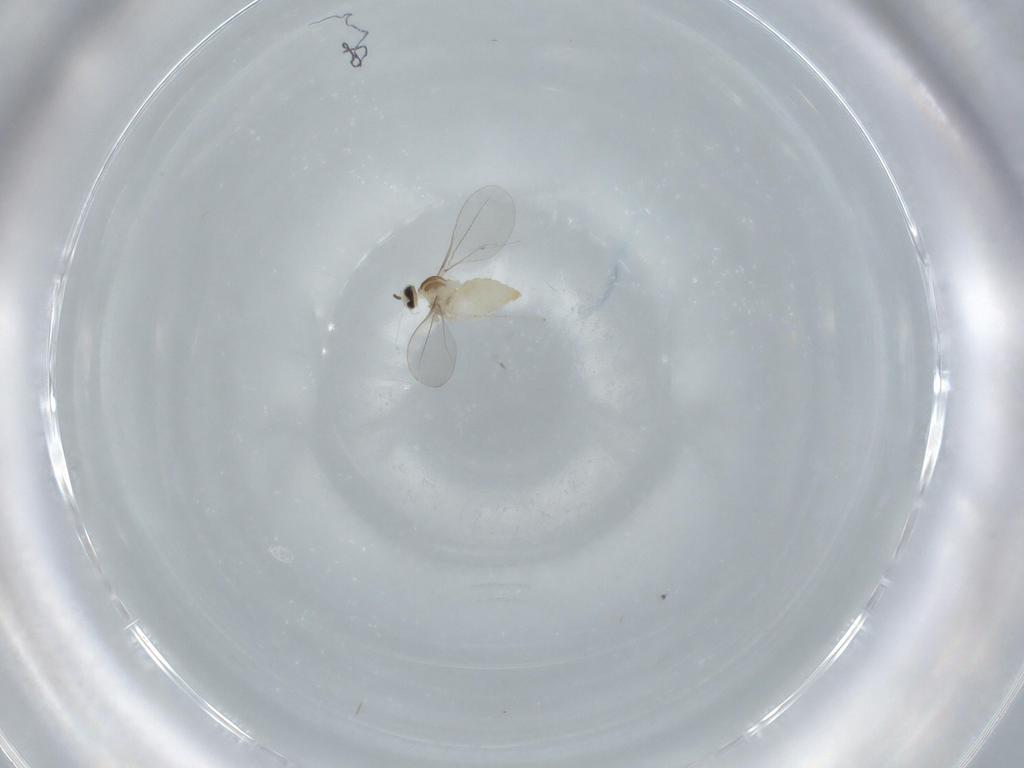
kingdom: Animalia
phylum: Arthropoda
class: Insecta
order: Diptera
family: Cecidomyiidae
